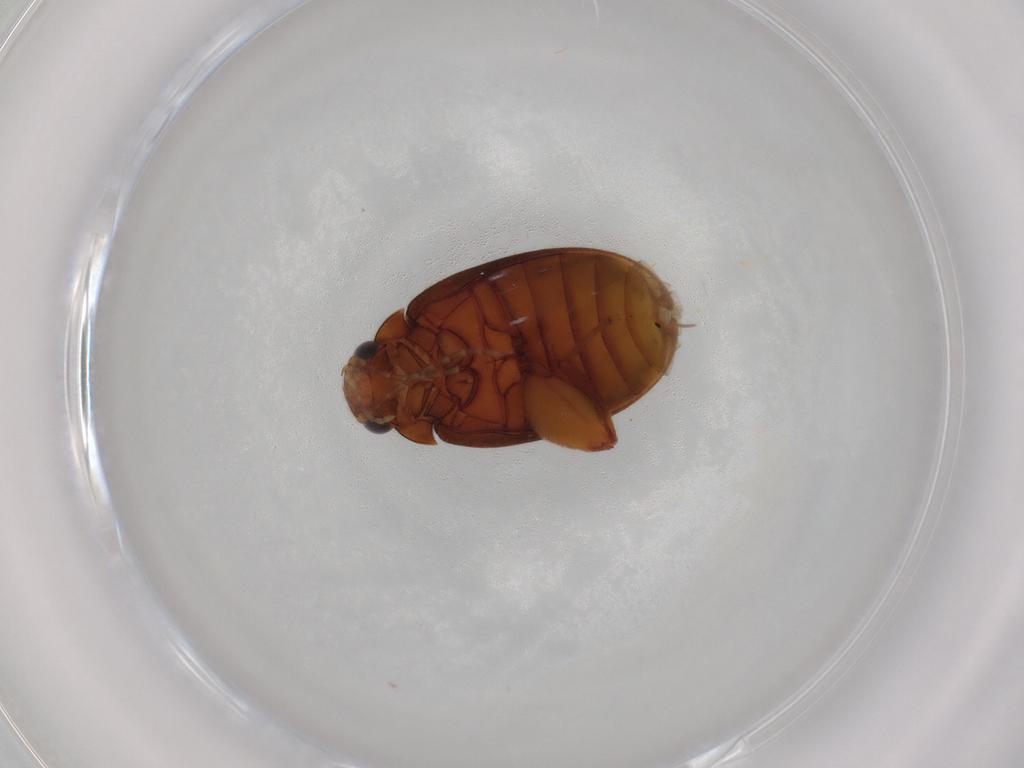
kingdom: Animalia
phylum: Arthropoda
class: Insecta
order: Coleoptera
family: Scirtidae
